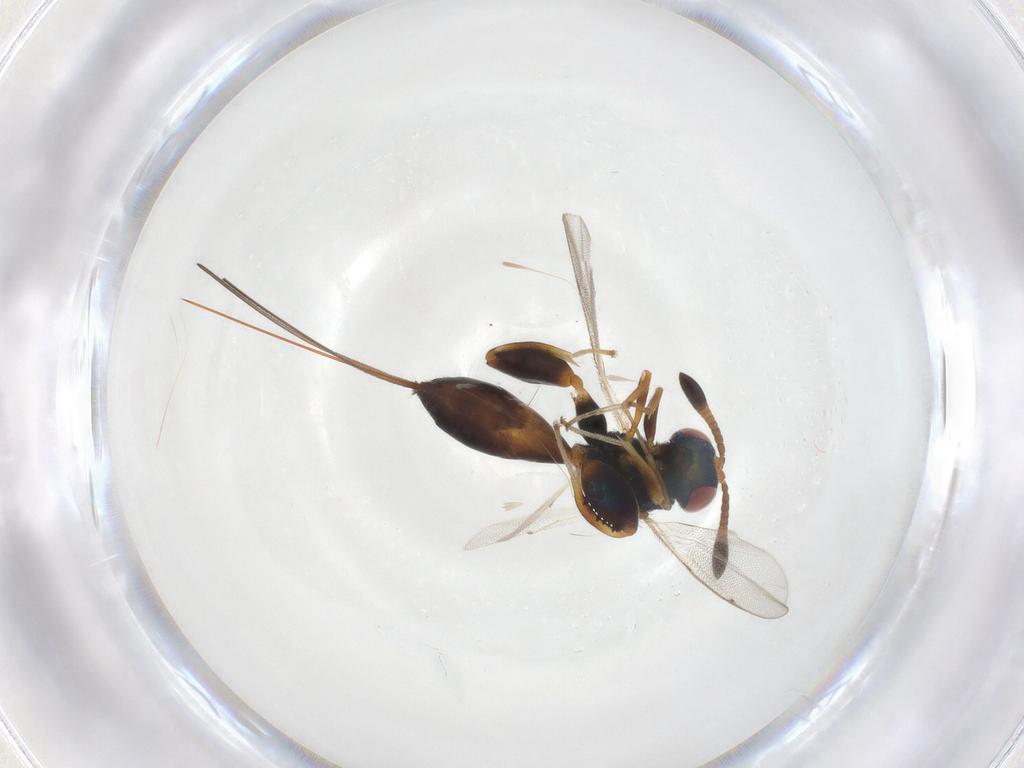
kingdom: Animalia
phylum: Arthropoda
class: Insecta
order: Hymenoptera
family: Torymidae
